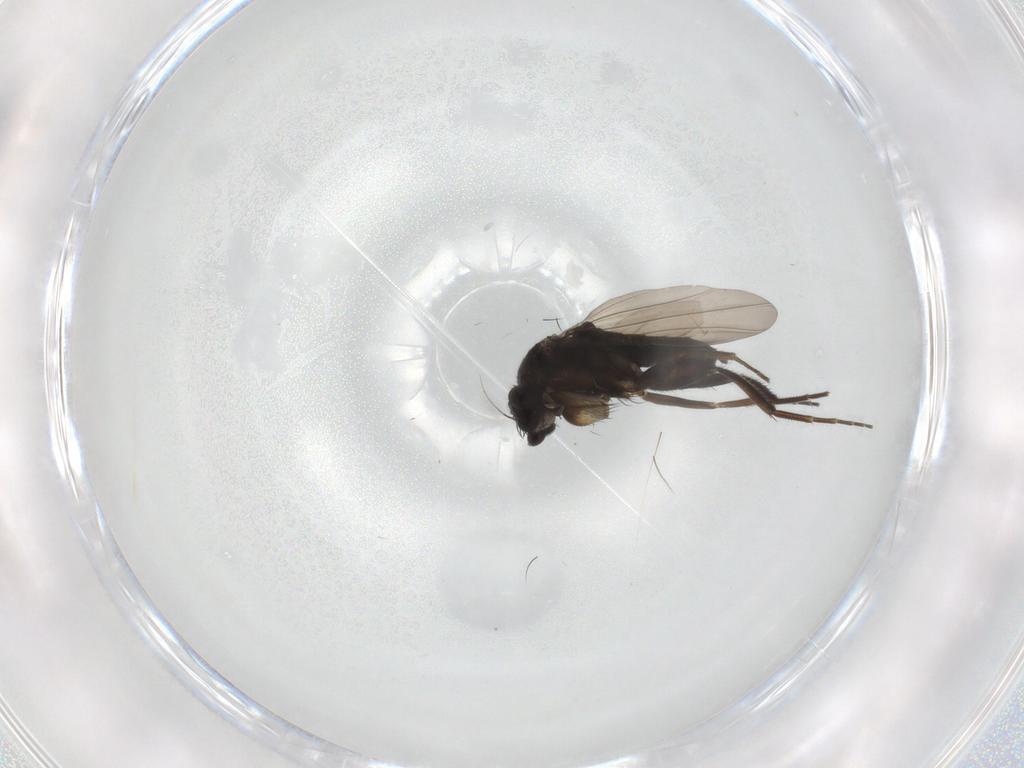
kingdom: Animalia
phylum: Arthropoda
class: Insecta
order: Diptera
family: Phoridae
